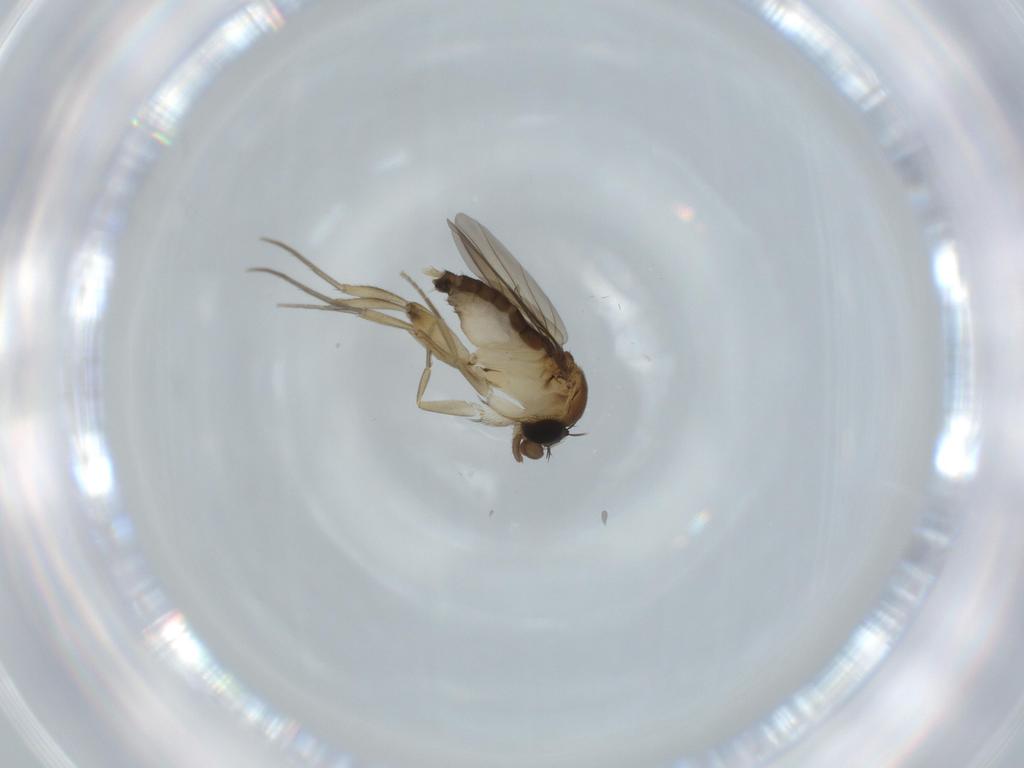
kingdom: Animalia
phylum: Arthropoda
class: Insecta
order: Diptera
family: Phoridae
